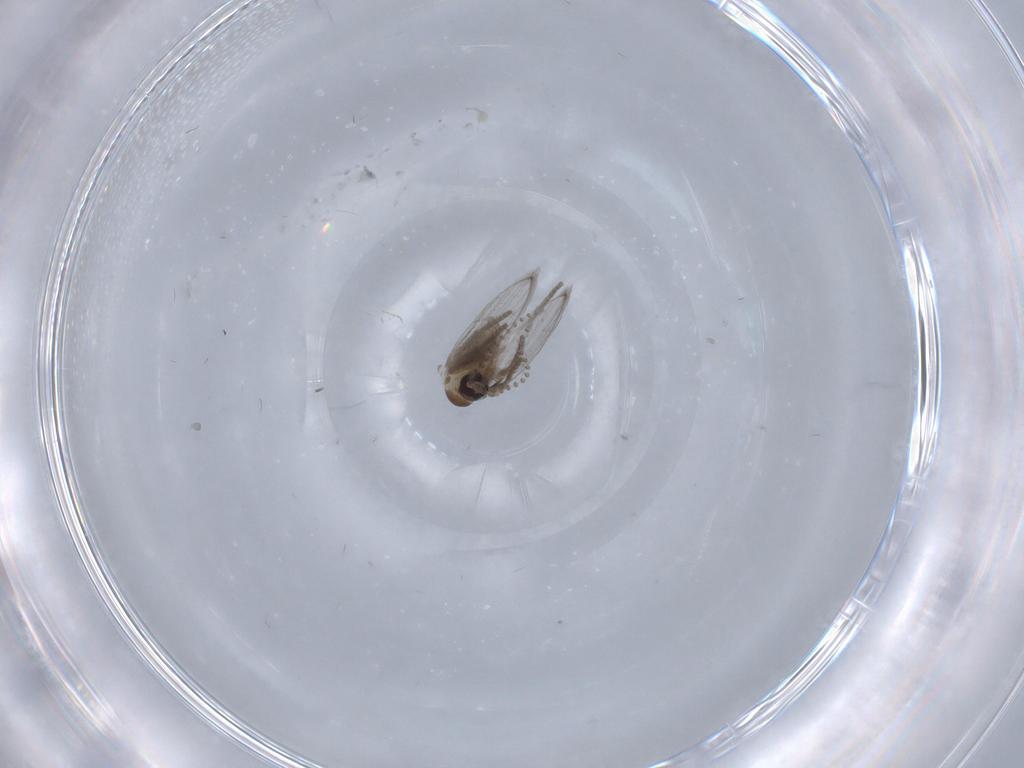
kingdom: Animalia
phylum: Arthropoda
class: Insecta
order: Diptera
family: Psychodidae
